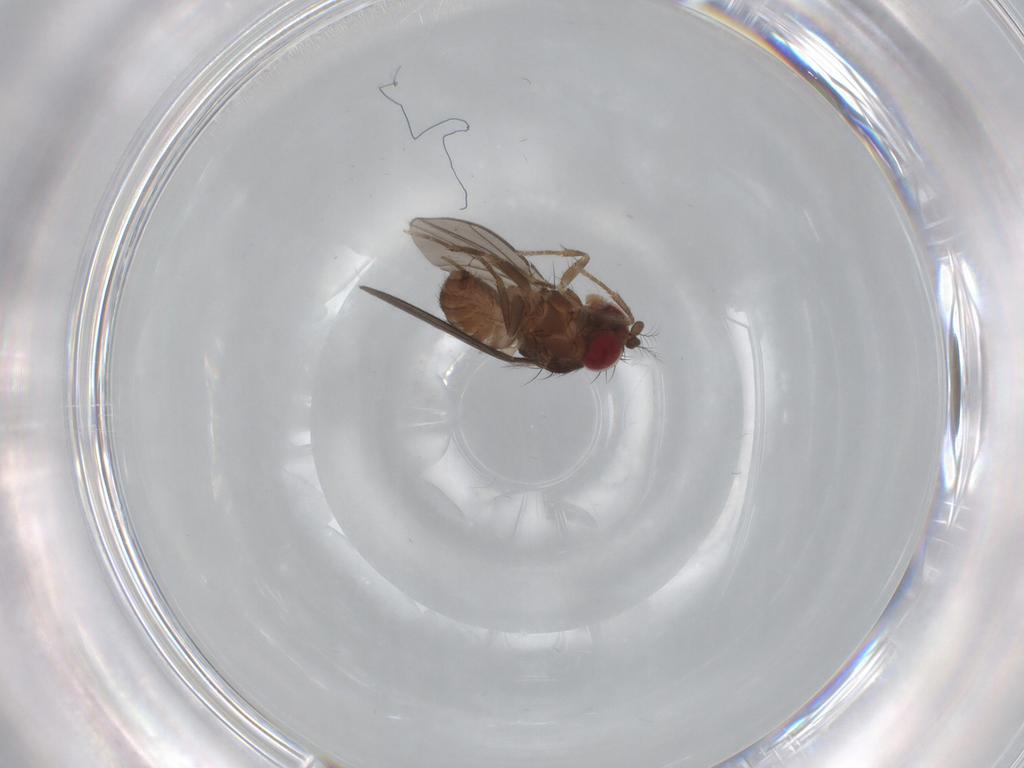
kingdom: Animalia
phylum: Arthropoda
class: Insecta
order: Diptera
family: Drosophilidae
